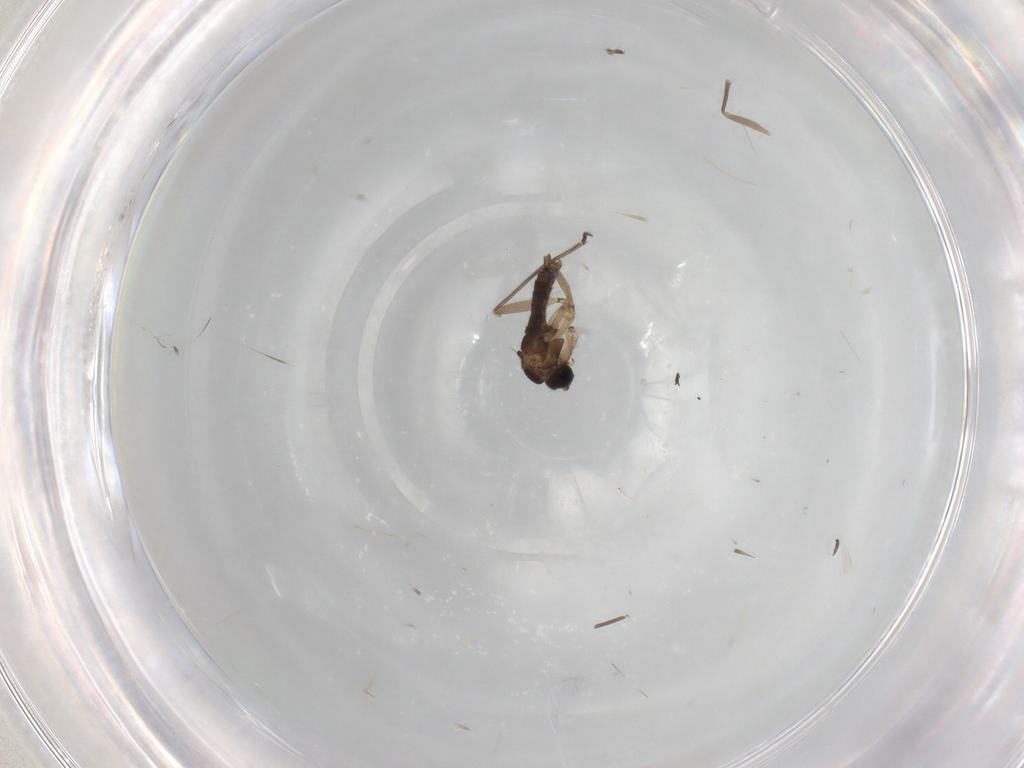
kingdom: Animalia
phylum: Arthropoda
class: Insecta
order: Diptera
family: Sciaridae
